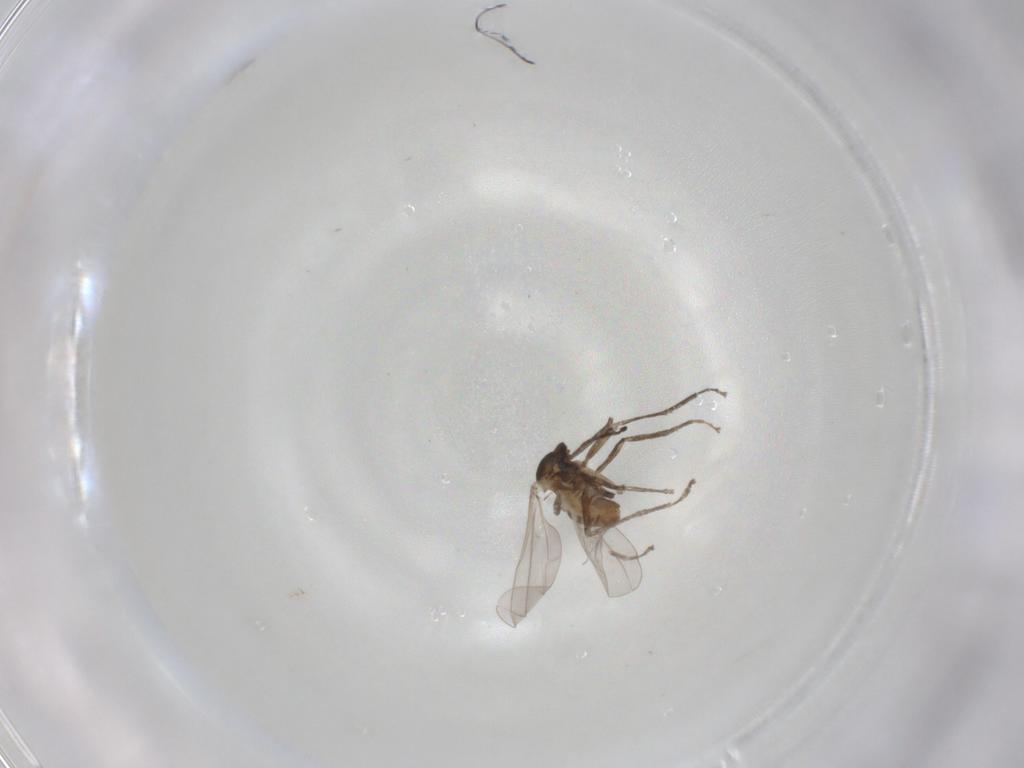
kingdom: Animalia
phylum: Arthropoda
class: Insecta
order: Diptera
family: Cecidomyiidae
